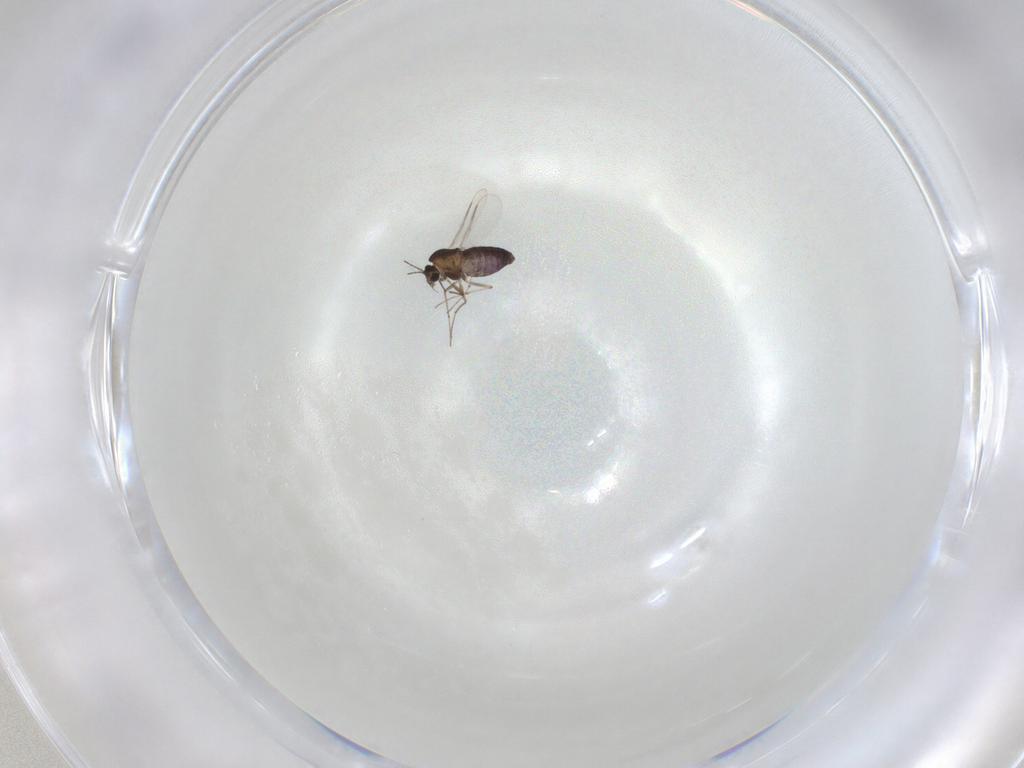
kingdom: Animalia
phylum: Arthropoda
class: Insecta
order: Diptera
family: Chironomidae
